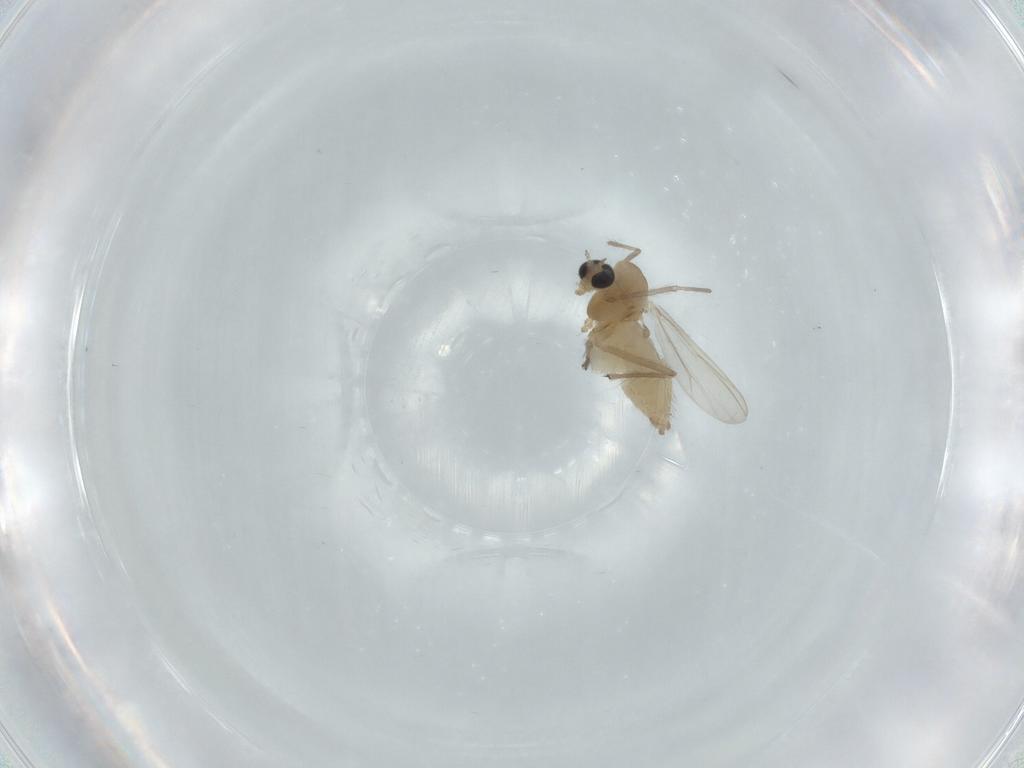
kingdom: Animalia
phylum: Arthropoda
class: Insecta
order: Diptera
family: Chironomidae
